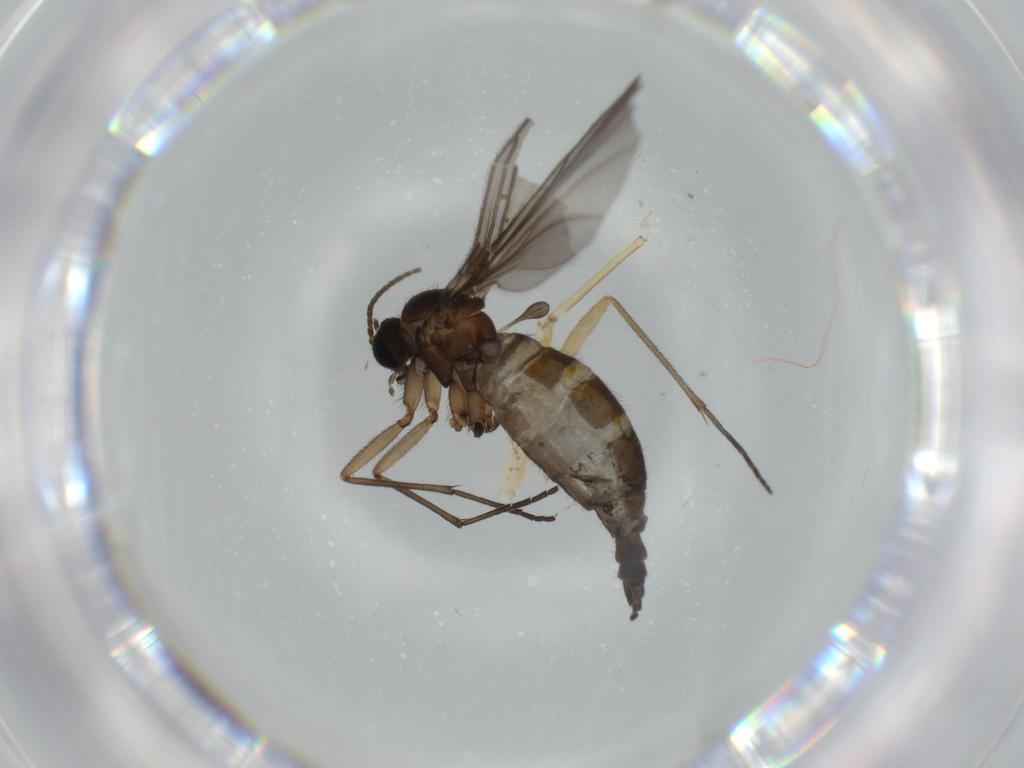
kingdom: Animalia
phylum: Arthropoda
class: Insecta
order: Diptera
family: Sciaridae
